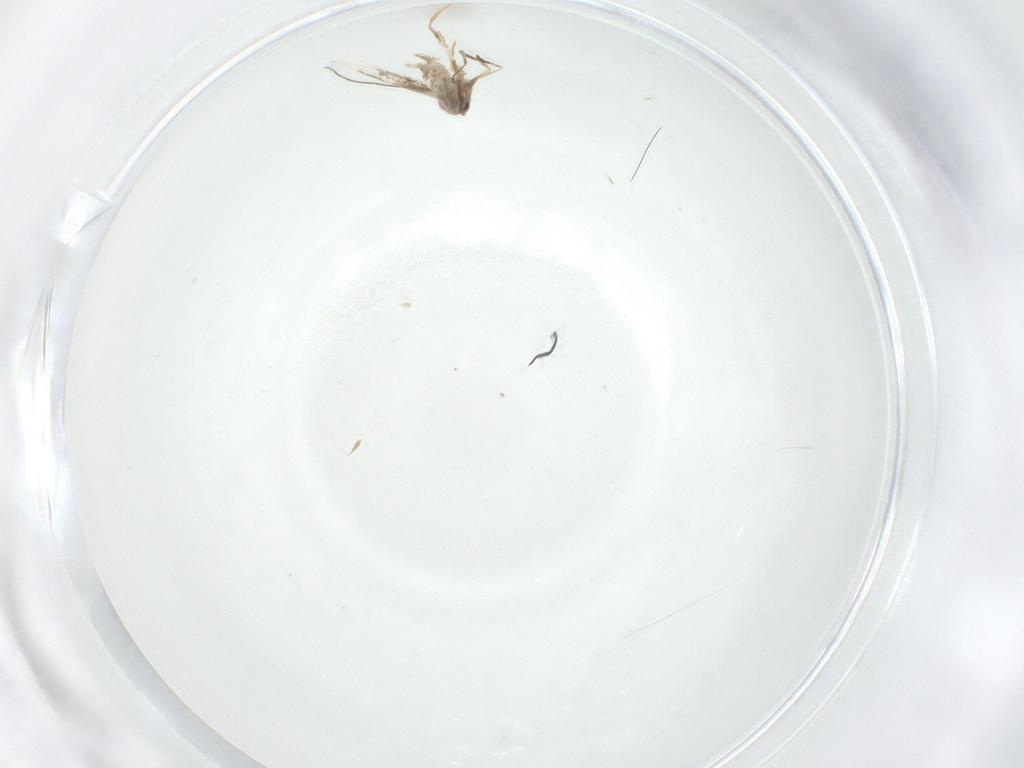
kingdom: Animalia
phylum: Arthropoda
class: Insecta
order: Lepidoptera
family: Gracillariidae
